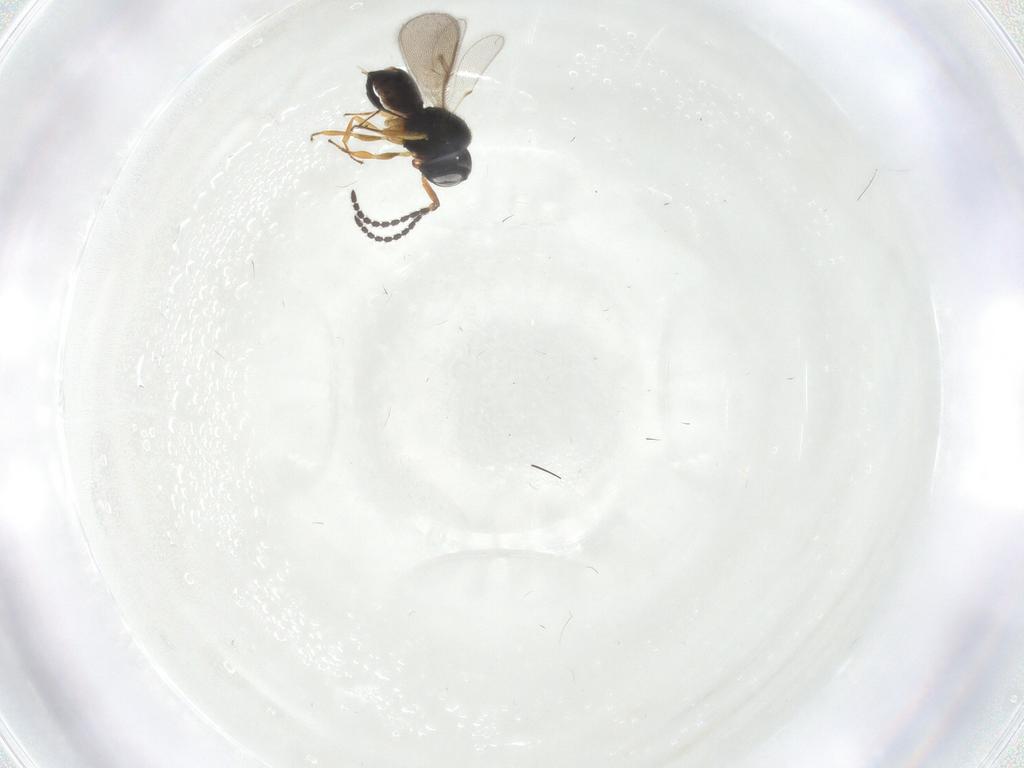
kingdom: Animalia
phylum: Arthropoda
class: Insecta
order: Hymenoptera
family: Scelionidae
